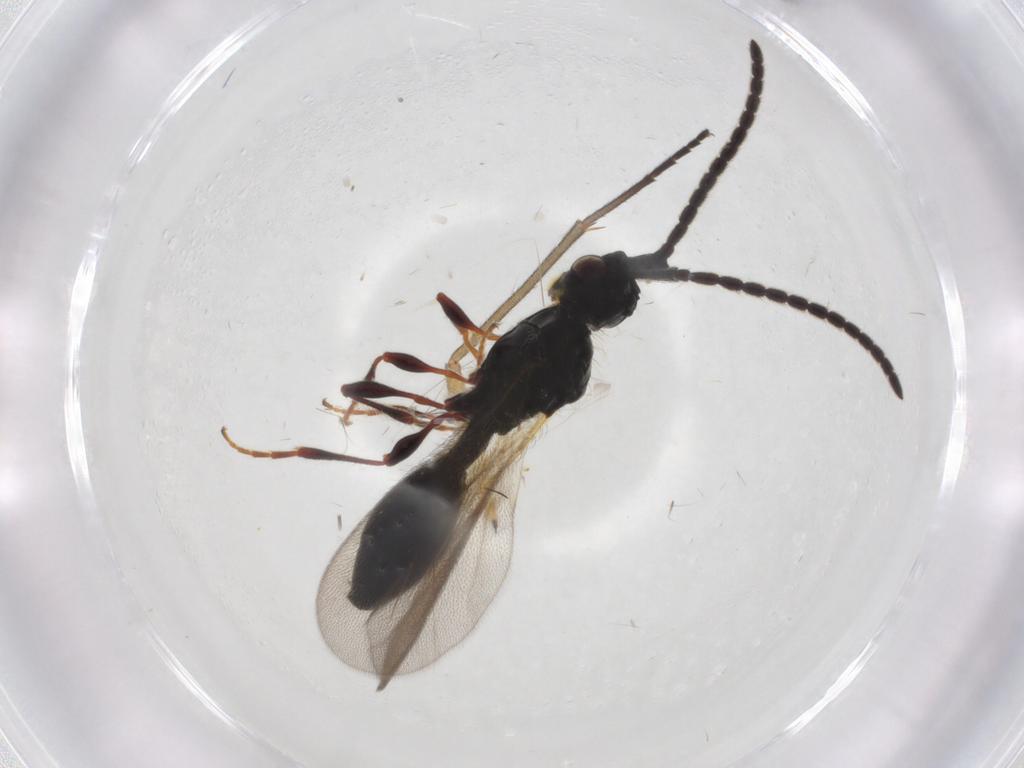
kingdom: Animalia
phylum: Arthropoda
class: Insecta
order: Hymenoptera
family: Diapriidae
